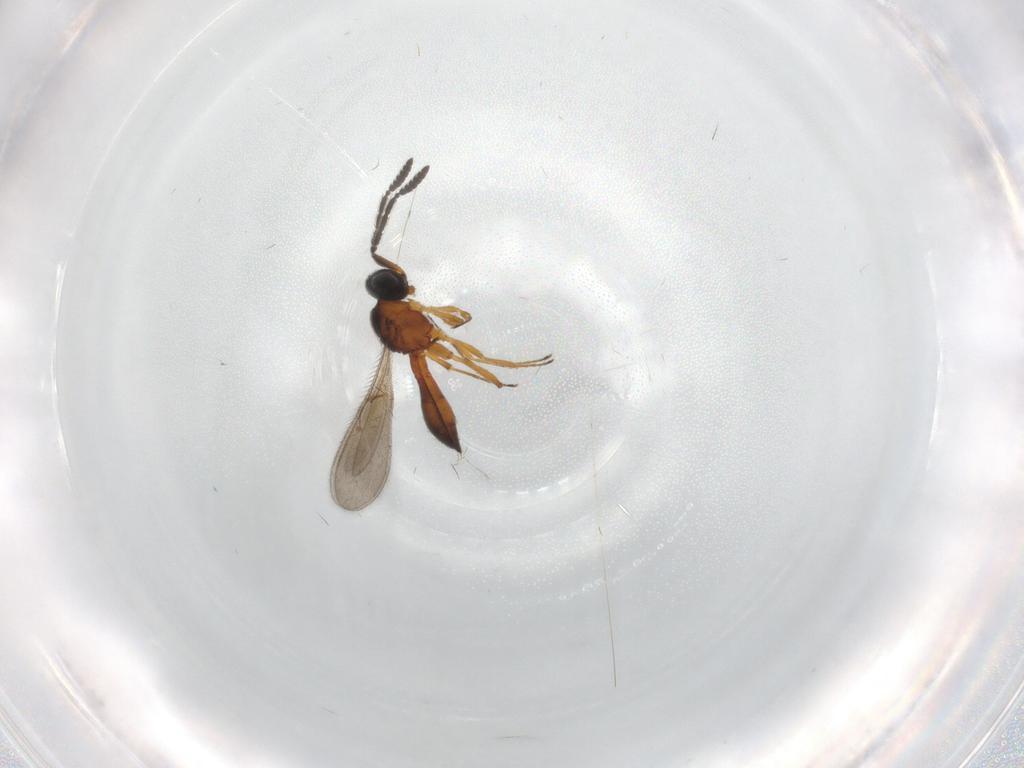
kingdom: Animalia
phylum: Arthropoda
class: Insecta
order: Hymenoptera
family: Scelionidae
